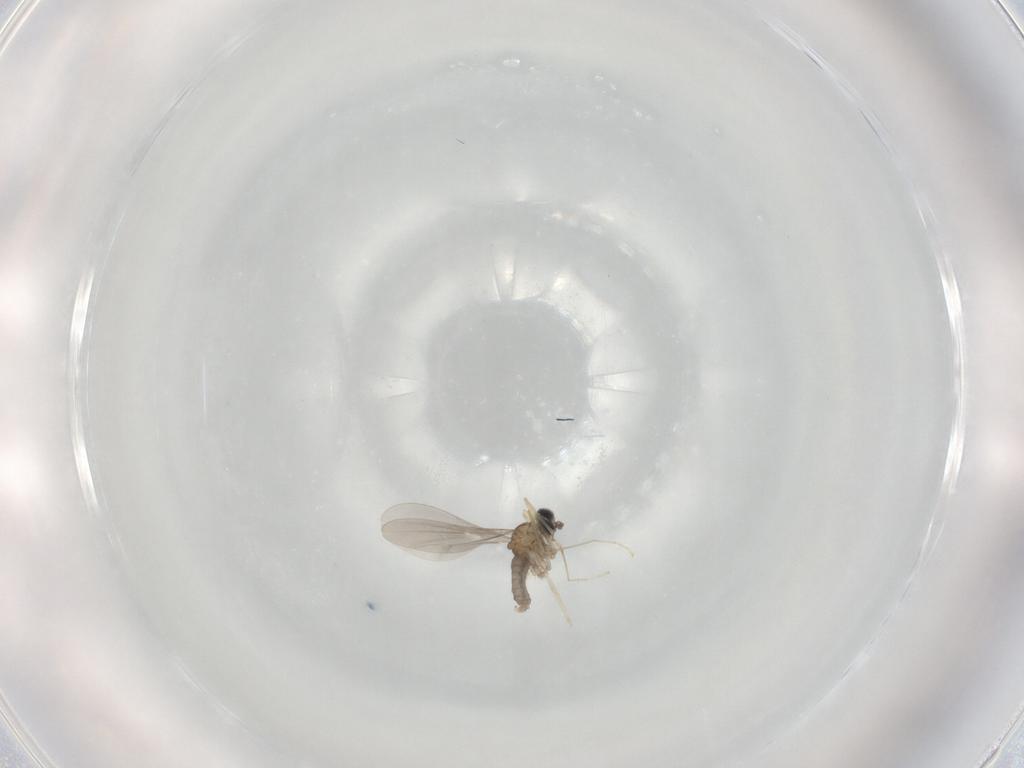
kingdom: Animalia
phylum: Arthropoda
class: Insecta
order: Diptera
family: Cecidomyiidae
